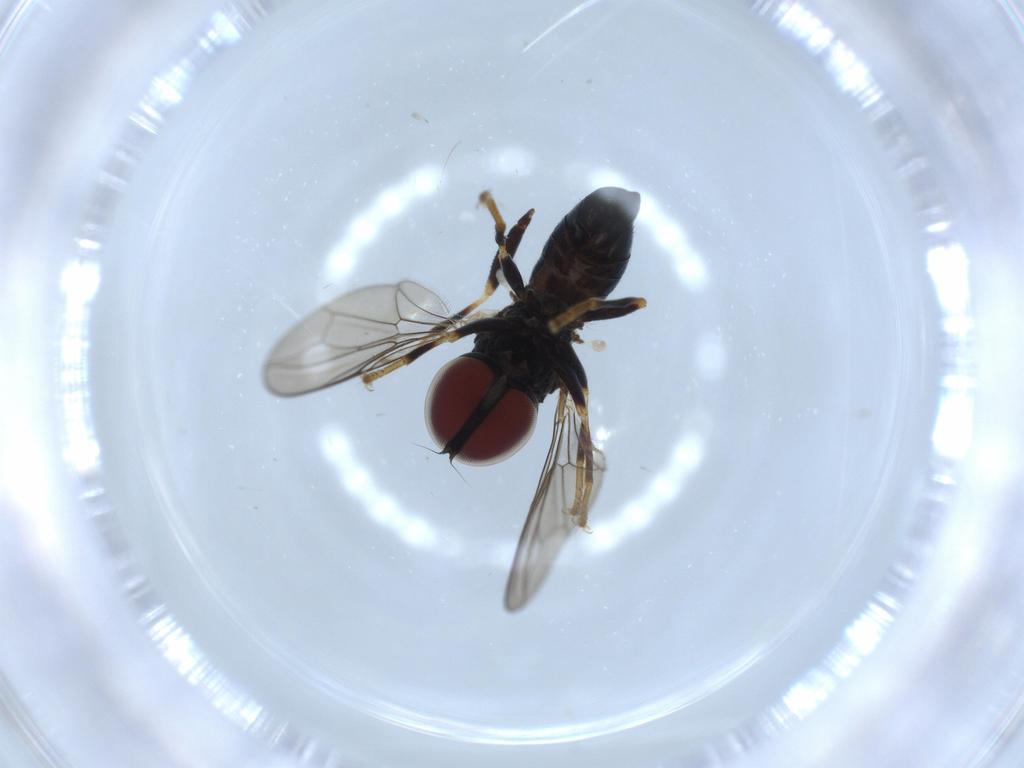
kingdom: Animalia
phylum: Arthropoda
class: Insecta
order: Diptera
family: Pipunculidae
